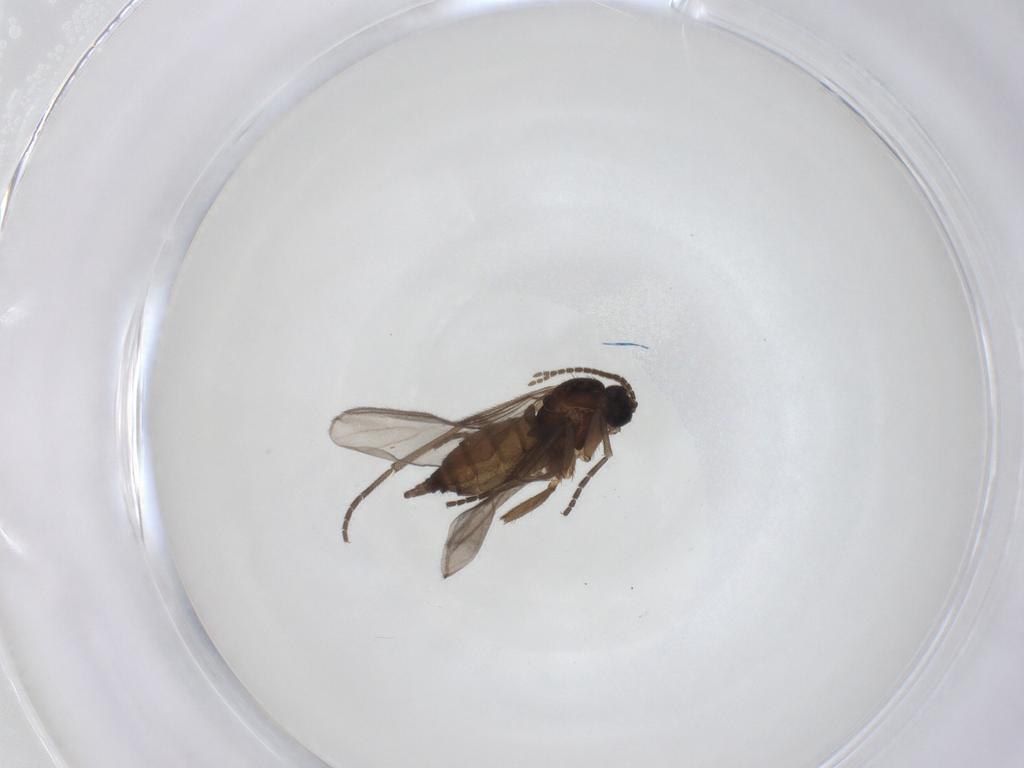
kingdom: Animalia
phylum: Arthropoda
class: Insecta
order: Diptera
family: Sciaridae
